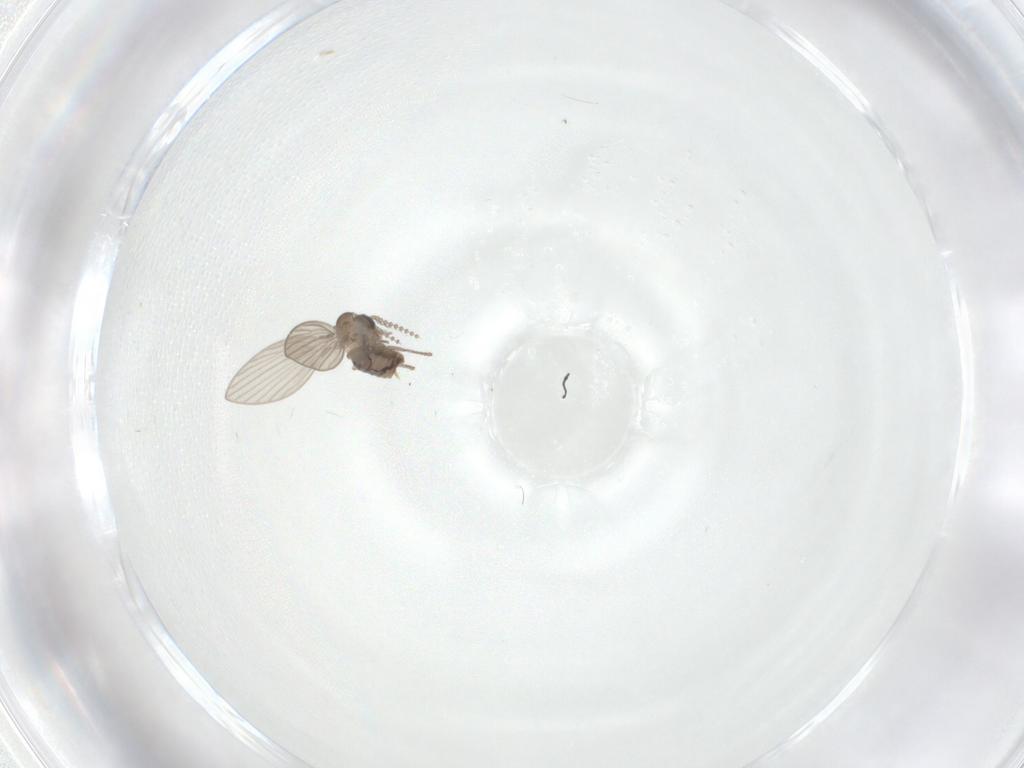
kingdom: Animalia
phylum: Arthropoda
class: Insecta
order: Diptera
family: Psychodidae
